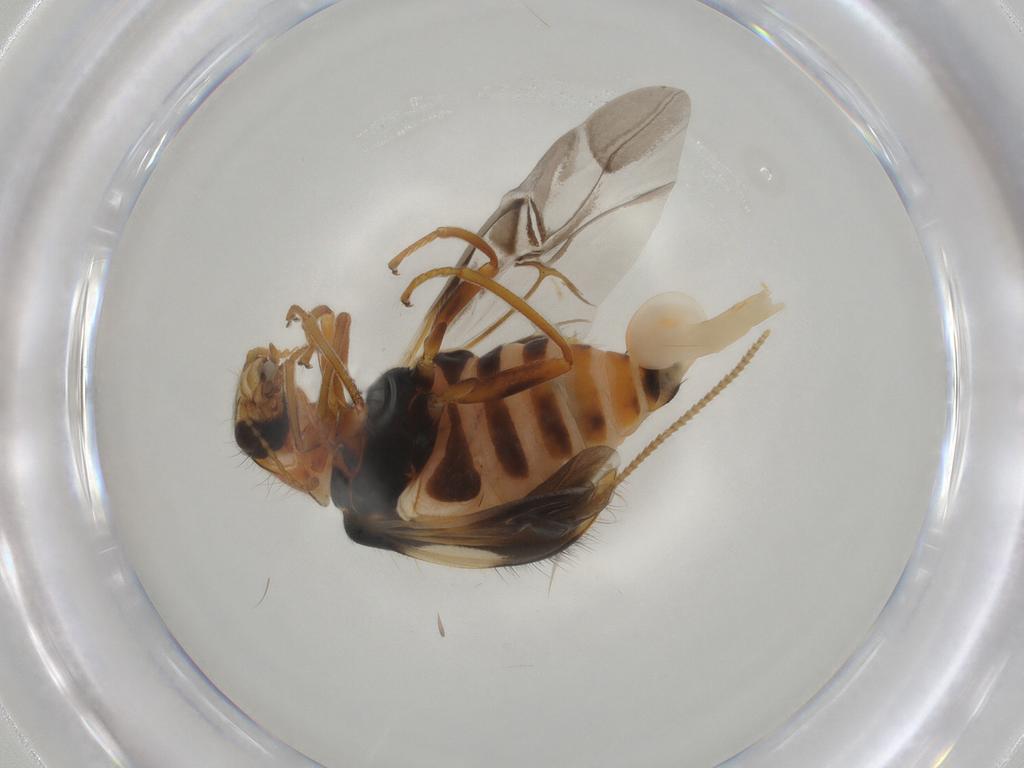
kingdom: Animalia
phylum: Arthropoda
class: Insecta
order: Coleoptera
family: Melyridae
